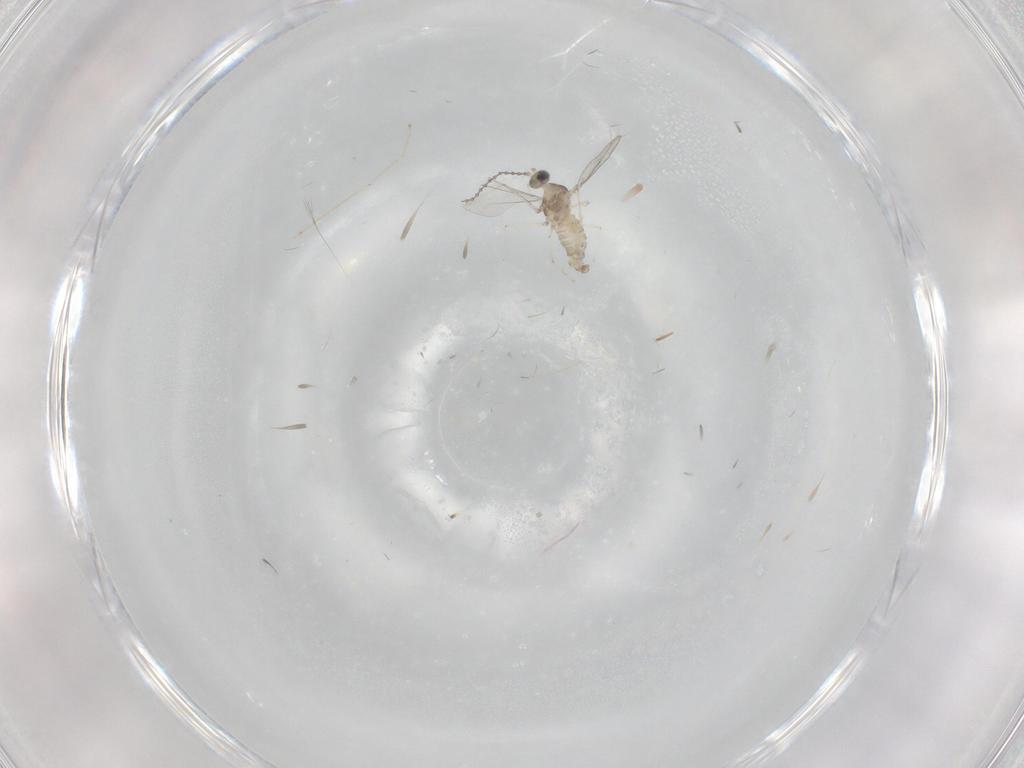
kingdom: Animalia
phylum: Arthropoda
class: Insecta
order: Diptera
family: Cecidomyiidae
